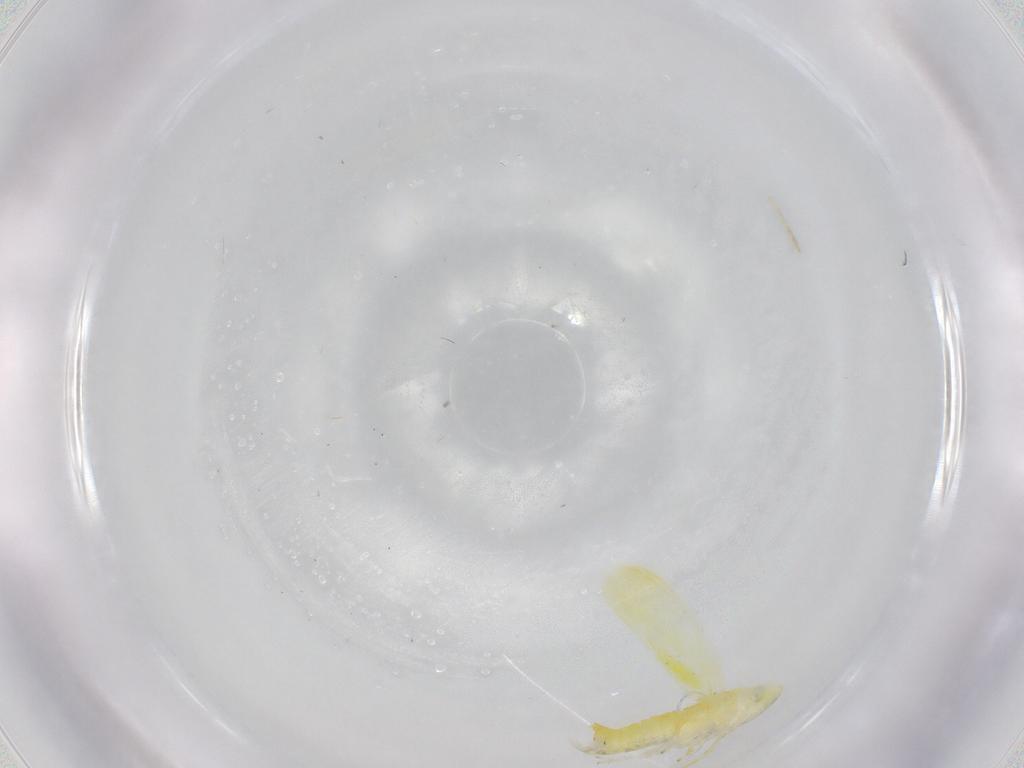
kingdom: Animalia
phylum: Arthropoda
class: Insecta
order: Hemiptera
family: Cicadellidae
